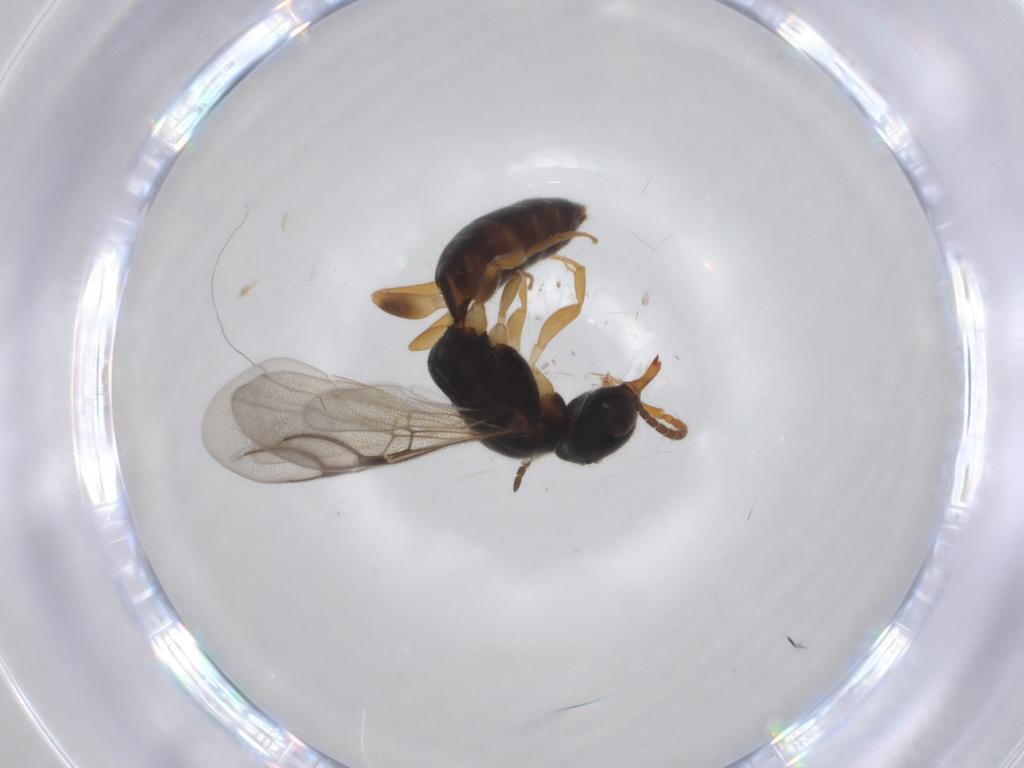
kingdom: Animalia
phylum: Arthropoda
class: Insecta
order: Hymenoptera
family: Bethylidae
